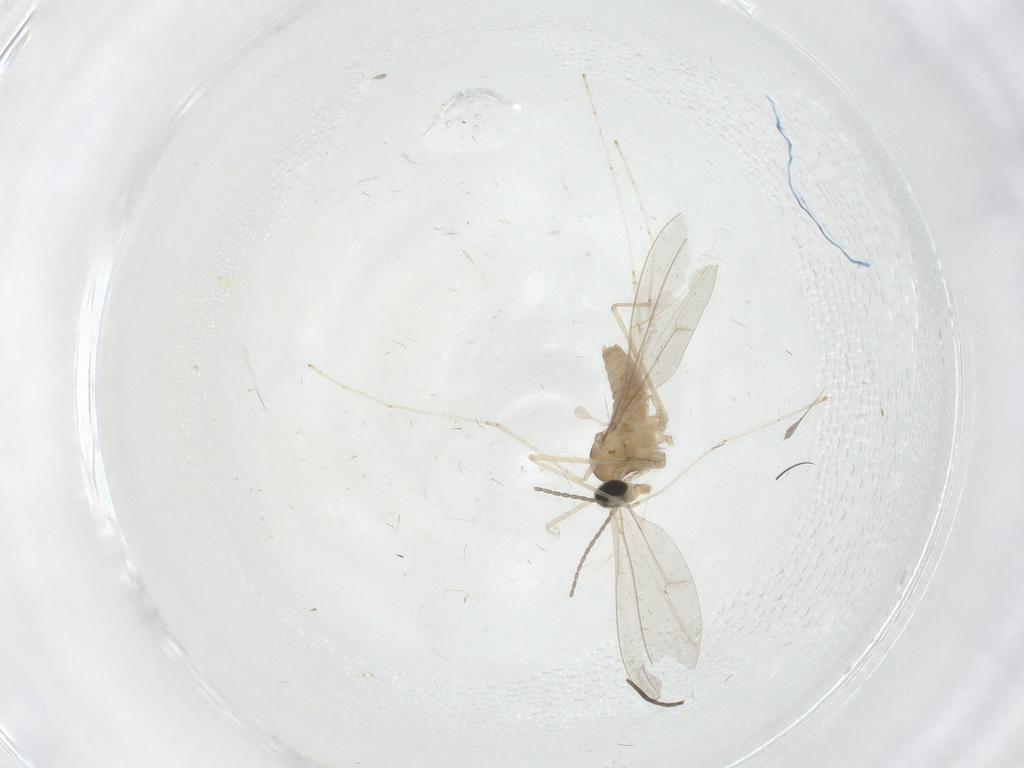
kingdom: Animalia
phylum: Arthropoda
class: Insecta
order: Diptera
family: Cecidomyiidae
